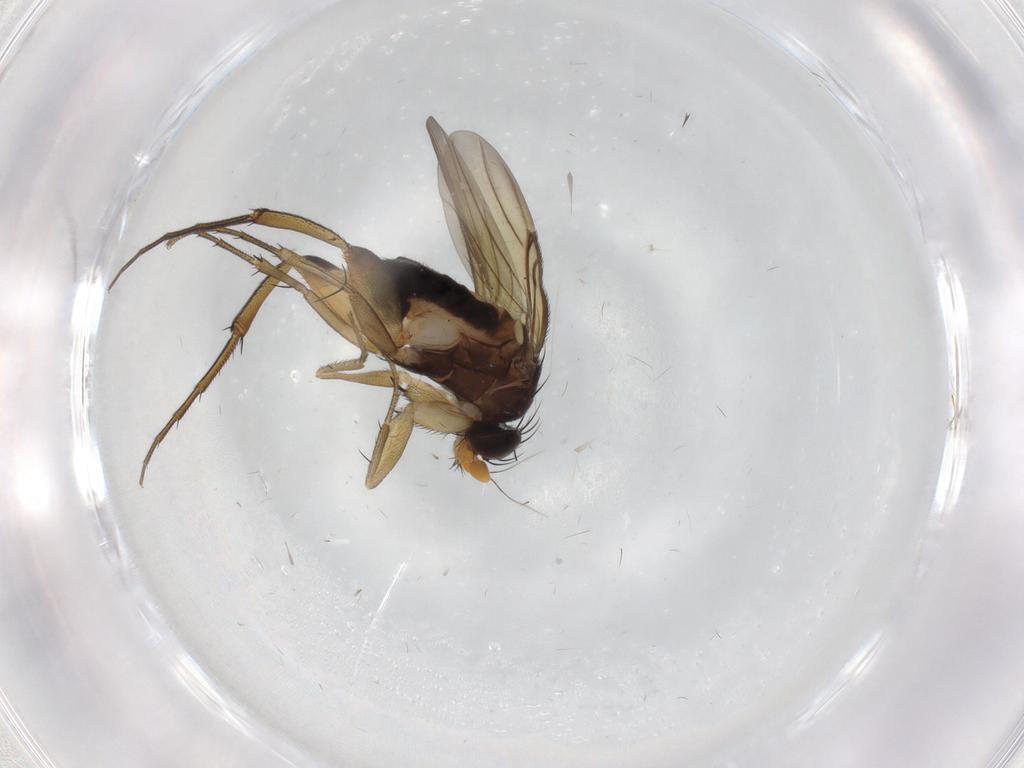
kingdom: Animalia
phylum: Arthropoda
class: Insecta
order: Diptera
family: Phoridae
